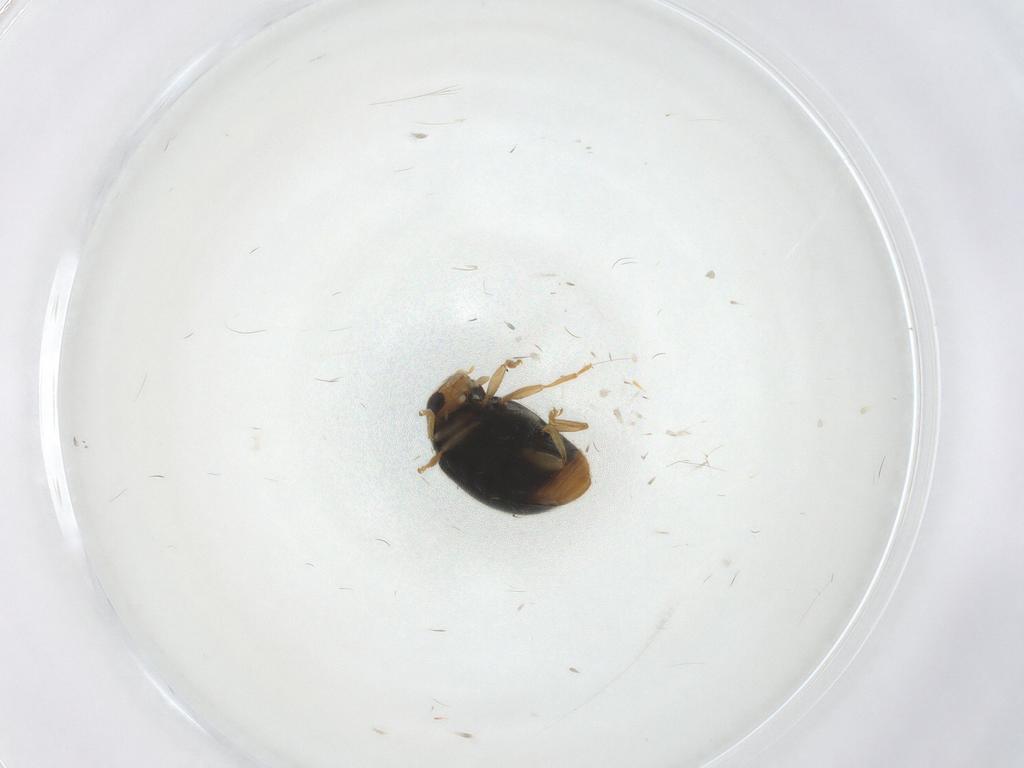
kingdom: Animalia
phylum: Arthropoda
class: Insecta
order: Coleoptera
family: Coccinellidae
